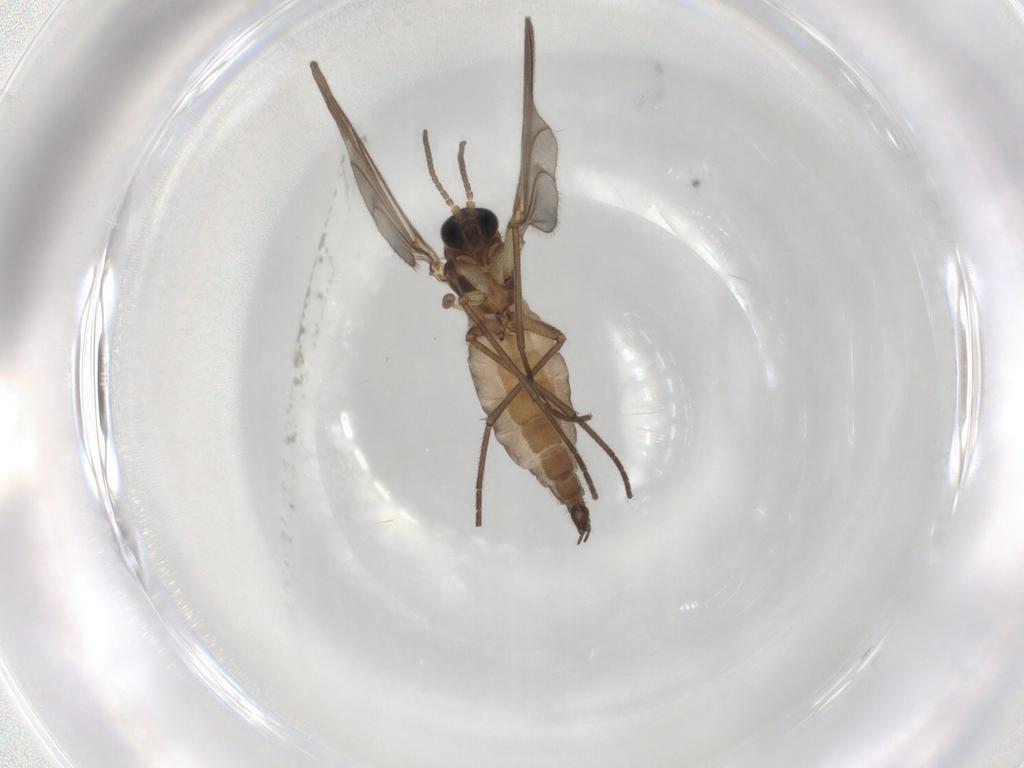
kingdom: Animalia
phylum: Arthropoda
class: Insecta
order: Diptera
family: Sciaridae
